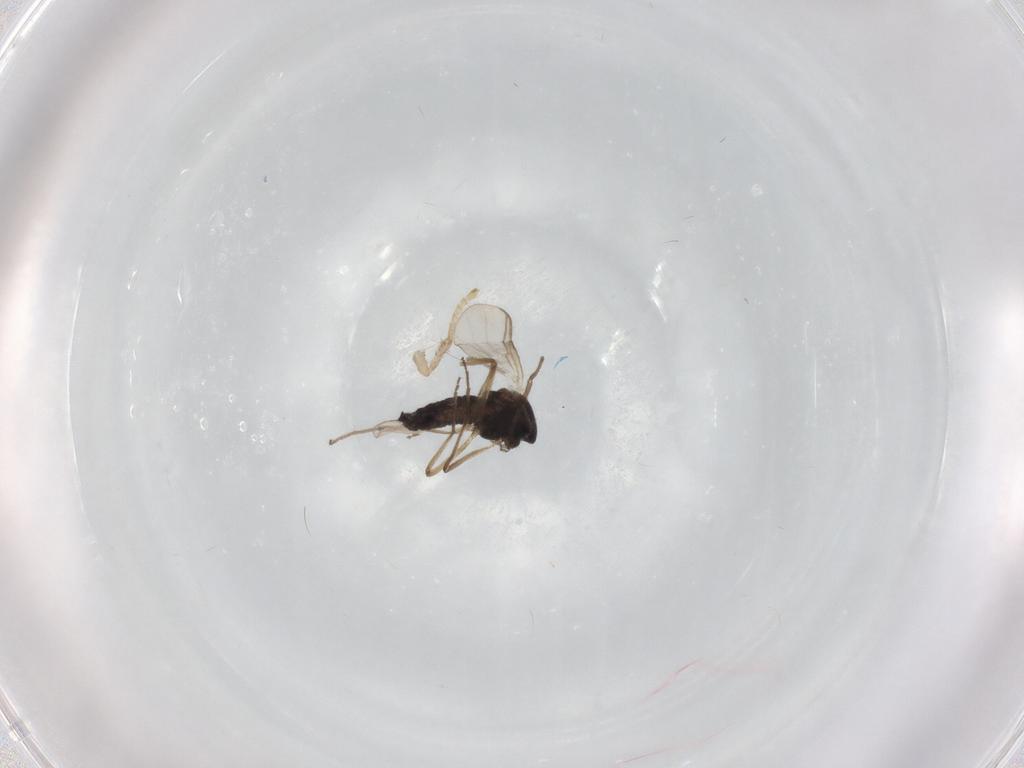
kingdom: Animalia
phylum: Arthropoda
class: Insecta
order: Diptera
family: Chironomidae
